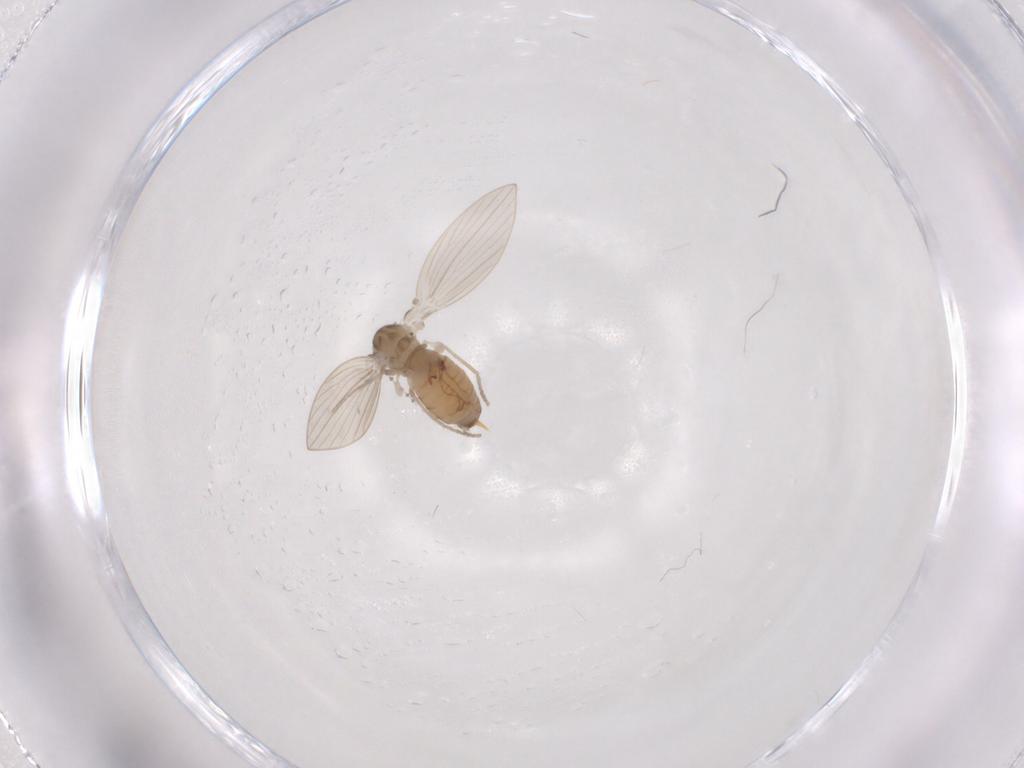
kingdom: Animalia
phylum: Arthropoda
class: Insecta
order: Diptera
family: Psychodidae
